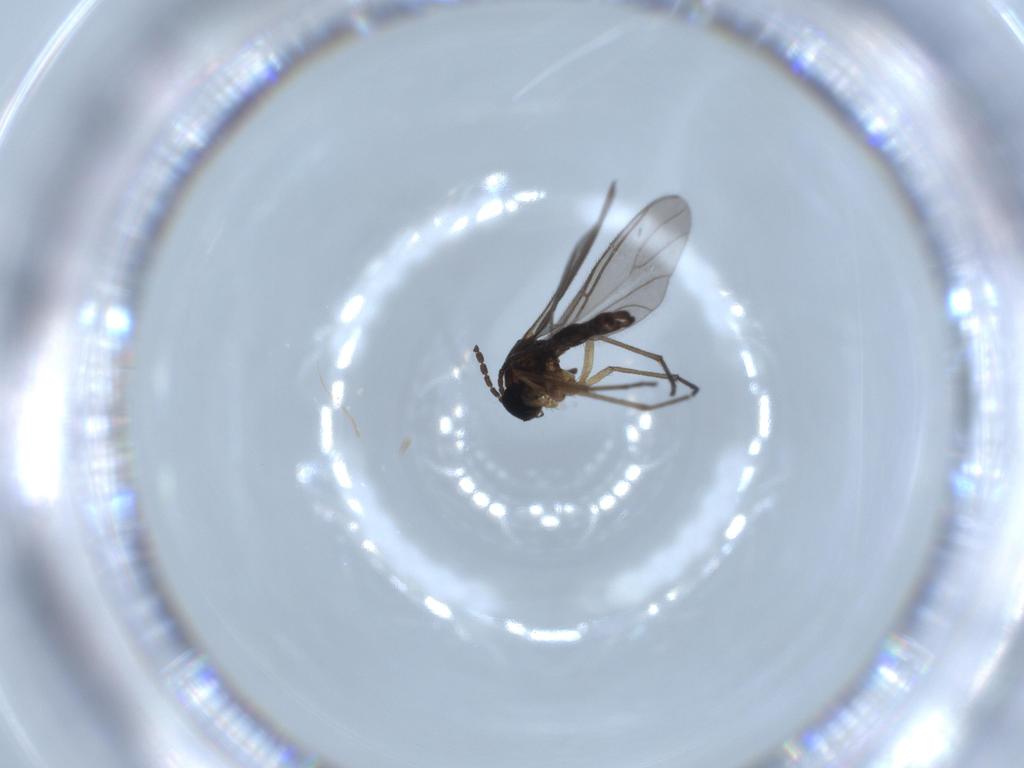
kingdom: Animalia
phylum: Arthropoda
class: Insecta
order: Diptera
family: Sciaridae
